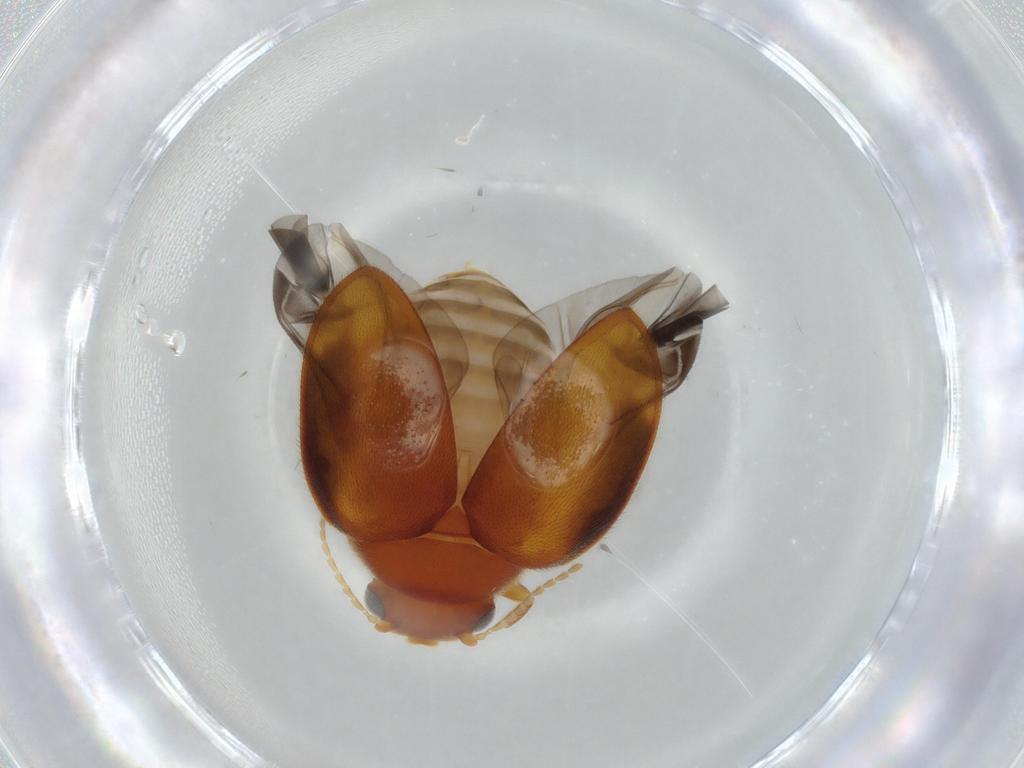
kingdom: Animalia
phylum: Arthropoda
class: Insecta
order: Coleoptera
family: Scirtidae
